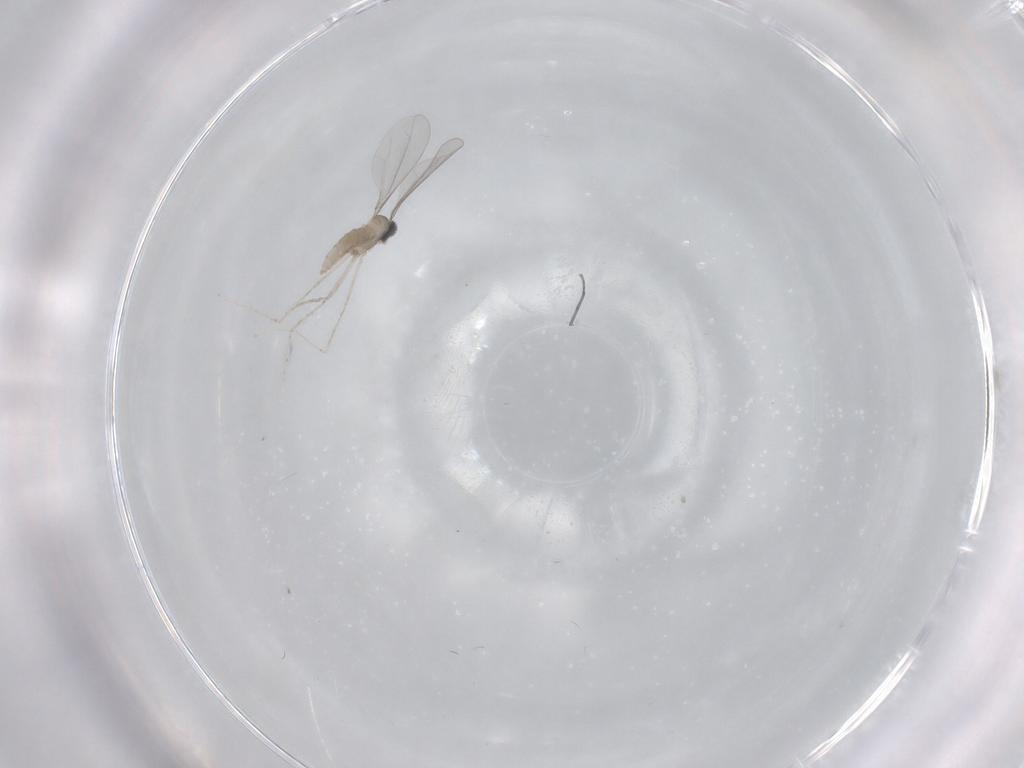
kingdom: Animalia
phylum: Arthropoda
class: Insecta
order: Diptera
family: Cecidomyiidae
